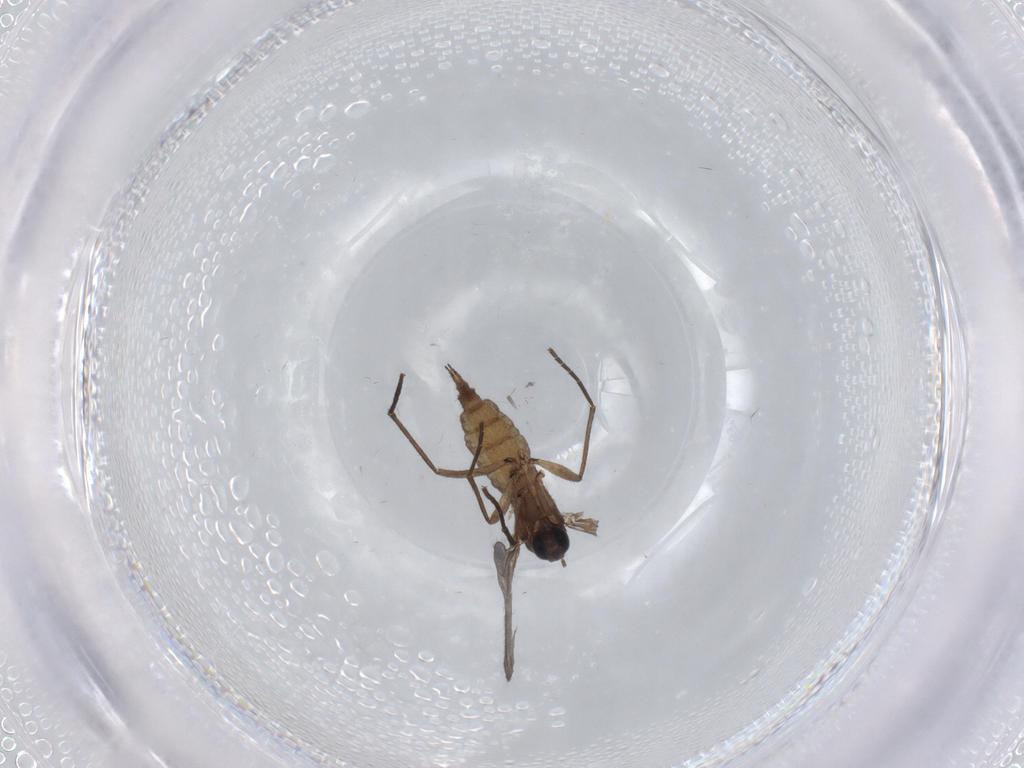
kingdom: Animalia
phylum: Arthropoda
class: Insecta
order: Diptera
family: Sciaridae
